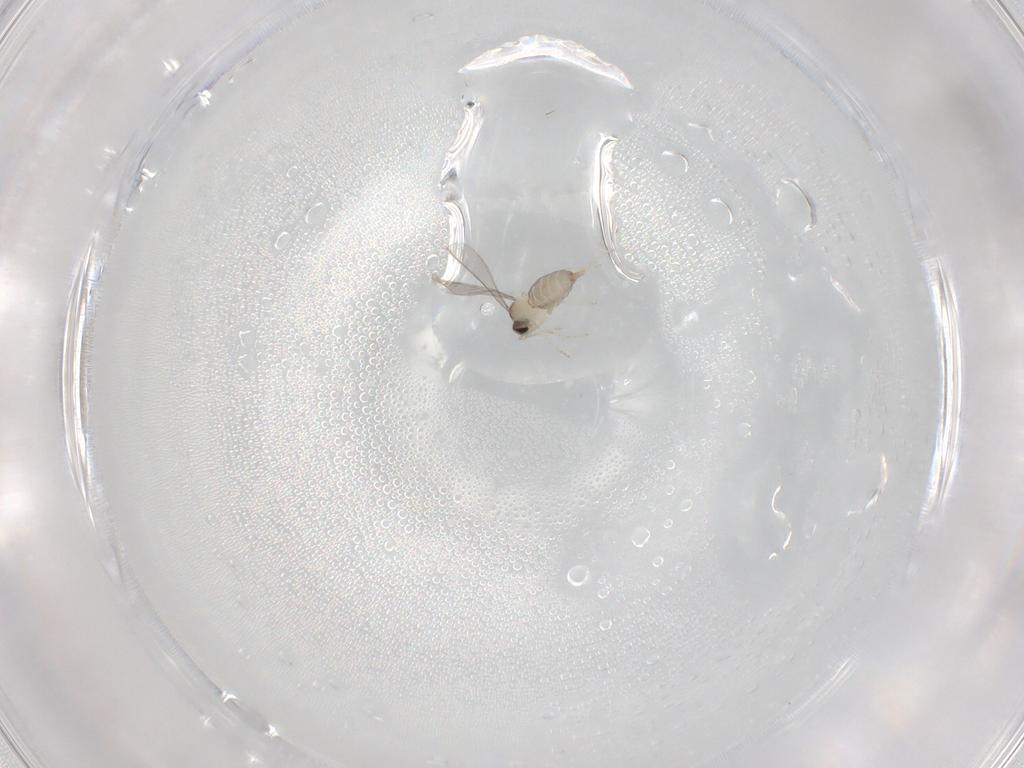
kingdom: Animalia
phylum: Arthropoda
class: Insecta
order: Diptera
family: Cecidomyiidae
